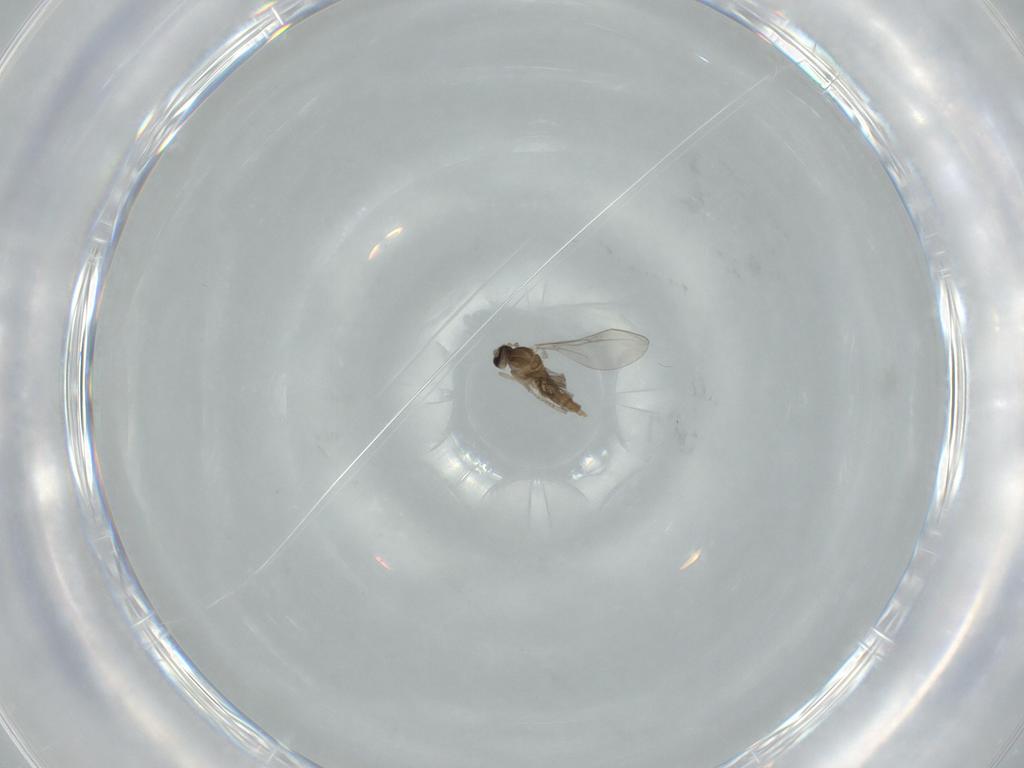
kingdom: Animalia
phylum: Arthropoda
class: Insecta
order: Diptera
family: Cecidomyiidae
